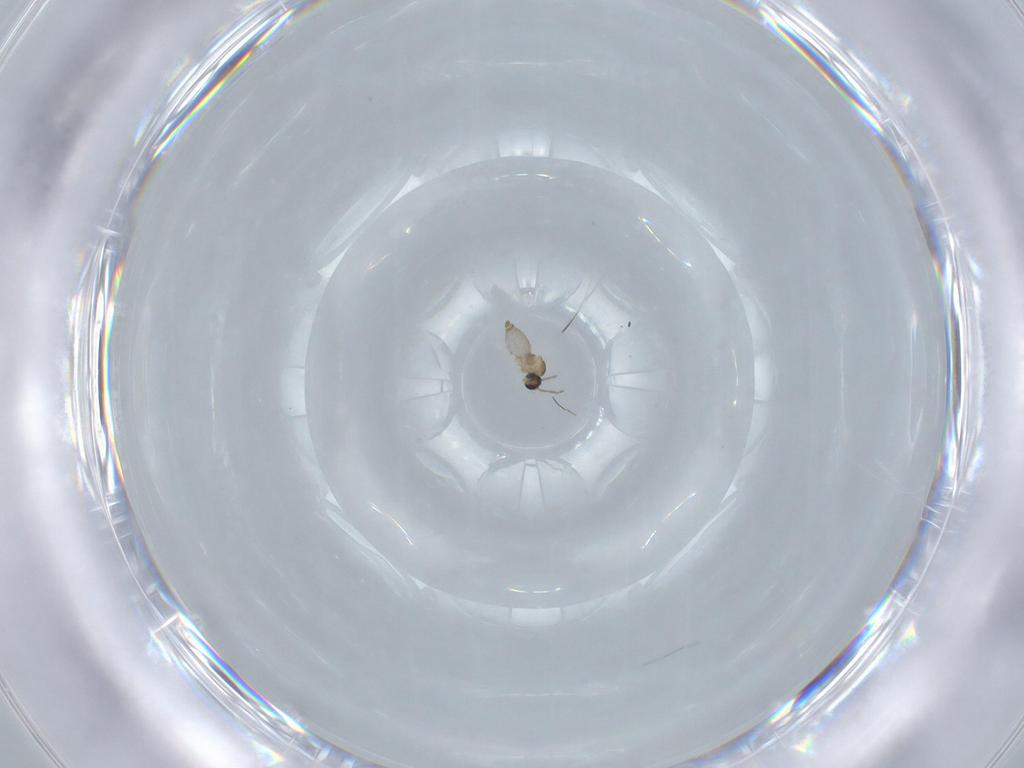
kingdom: Animalia
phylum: Arthropoda
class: Insecta
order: Diptera
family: Cecidomyiidae
